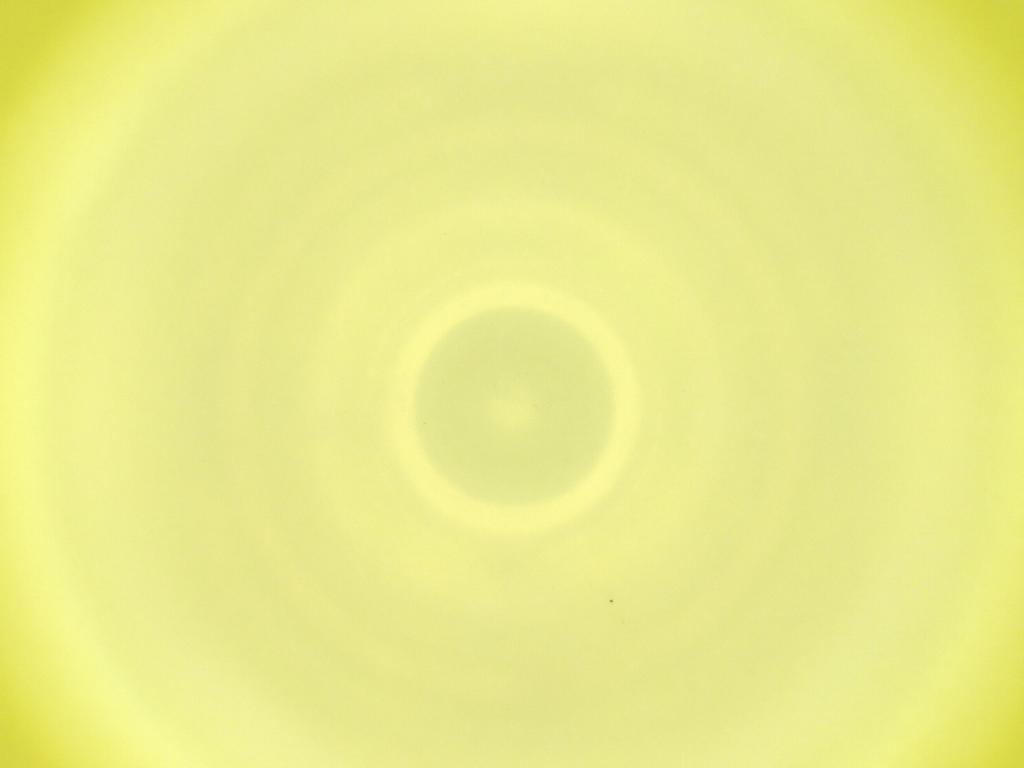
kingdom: Animalia
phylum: Arthropoda
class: Insecta
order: Diptera
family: Cecidomyiidae
